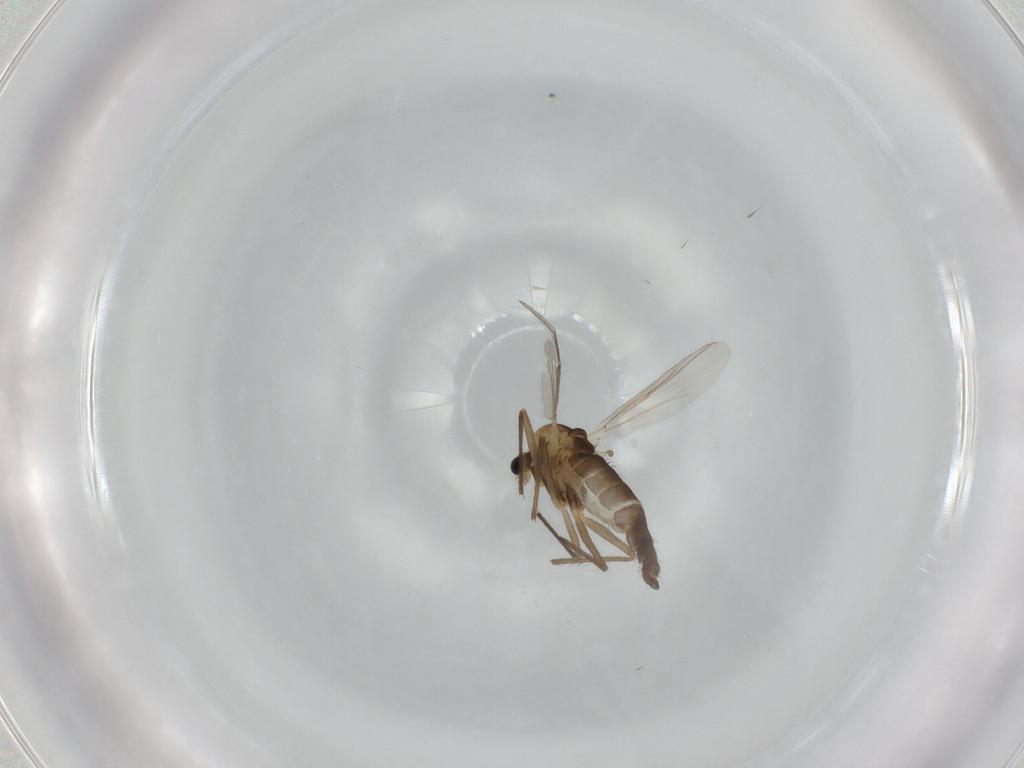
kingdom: Animalia
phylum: Arthropoda
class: Insecta
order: Diptera
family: Chironomidae
